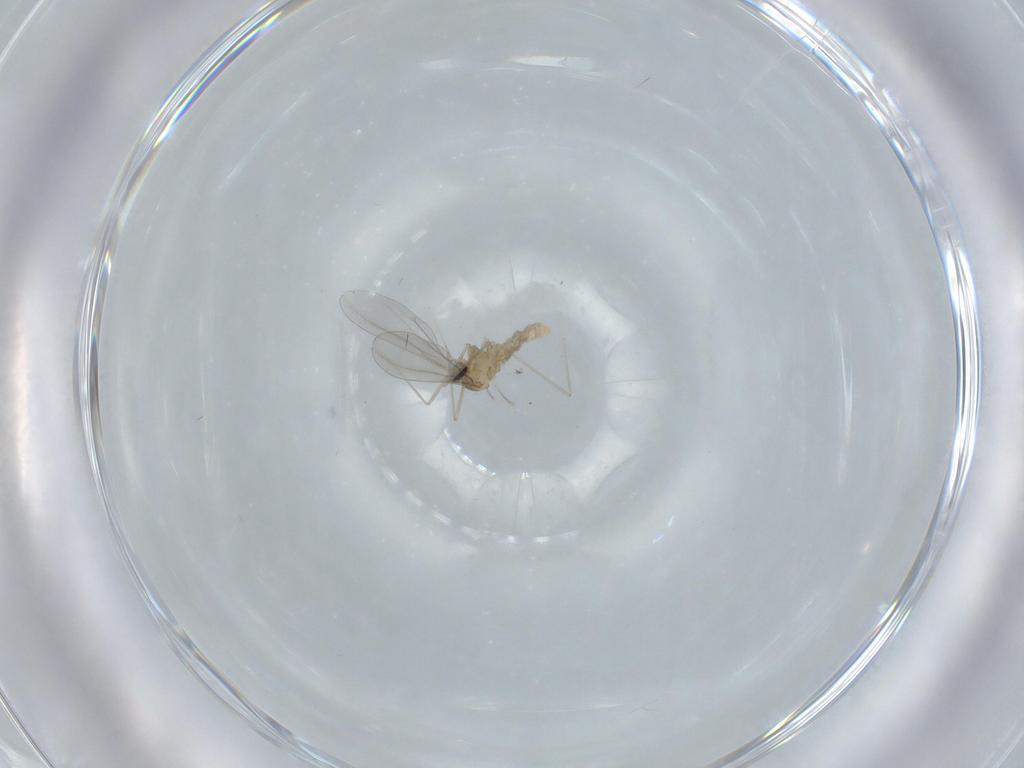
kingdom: Animalia
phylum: Arthropoda
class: Insecta
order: Diptera
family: Cecidomyiidae
